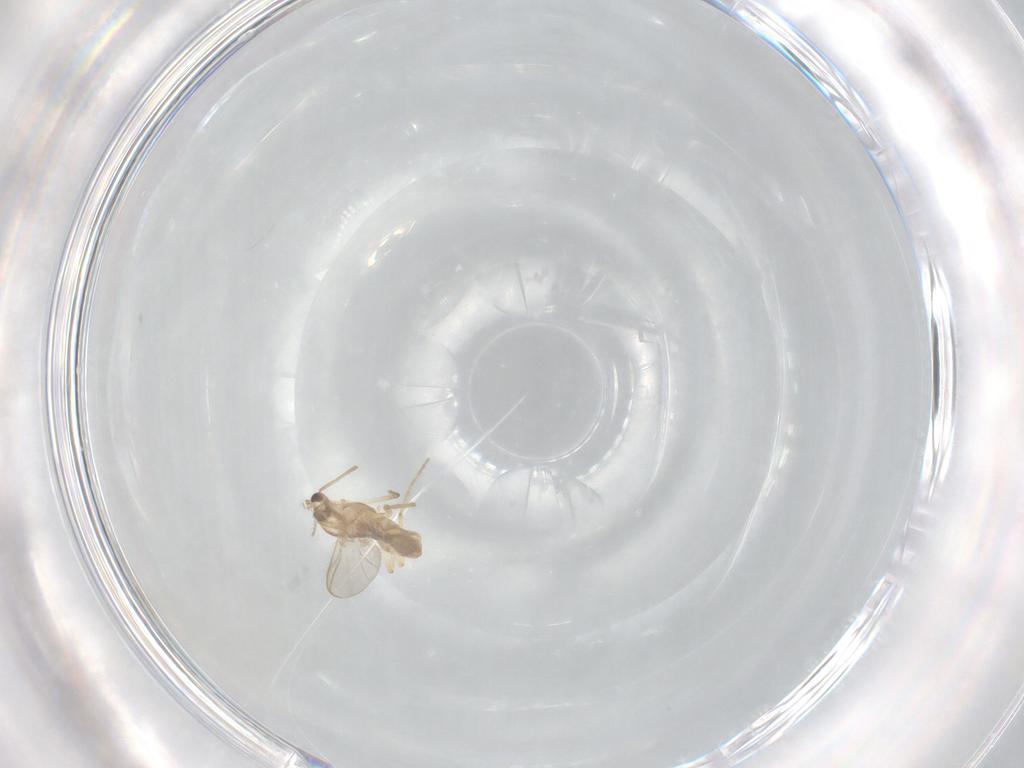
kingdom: Animalia
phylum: Arthropoda
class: Insecta
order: Diptera
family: Chironomidae
